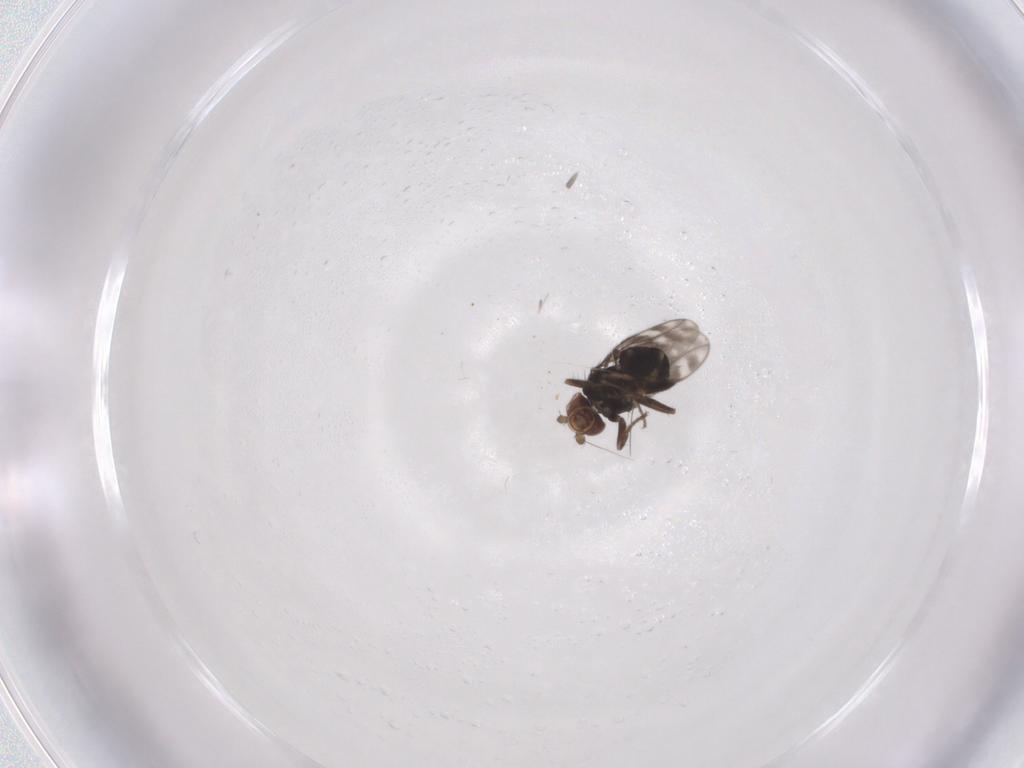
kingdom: Animalia
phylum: Arthropoda
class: Insecta
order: Diptera
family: Sphaeroceridae
